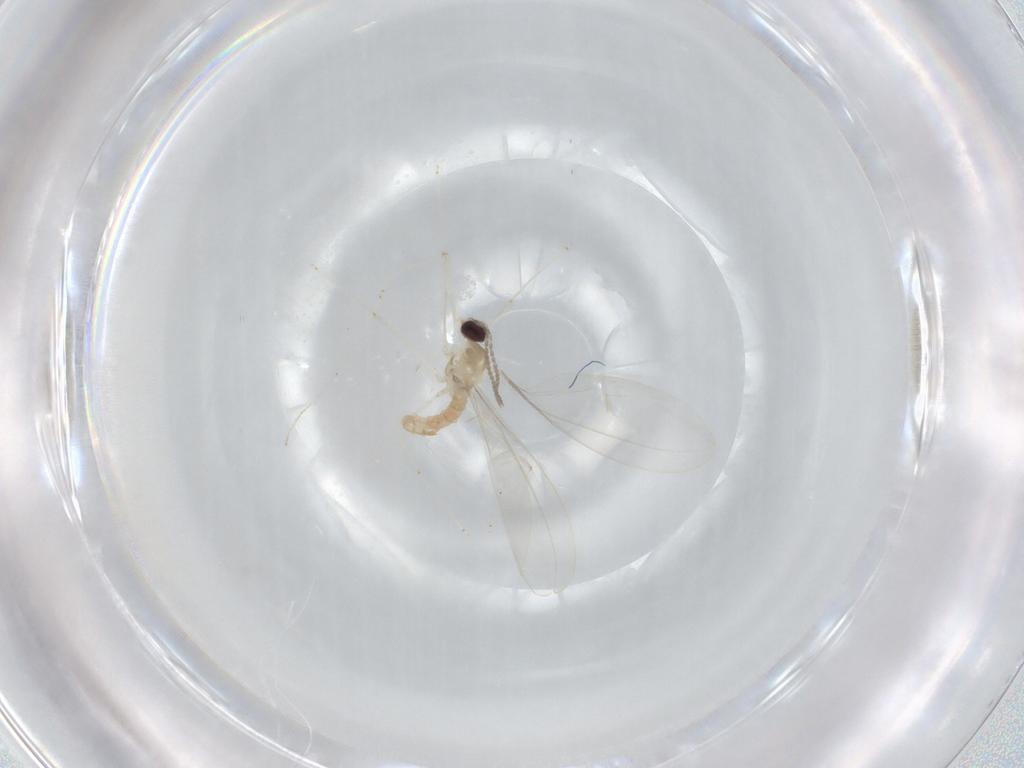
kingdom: Animalia
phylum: Arthropoda
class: Insecta
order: Diptera
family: Cecidomyiidae
